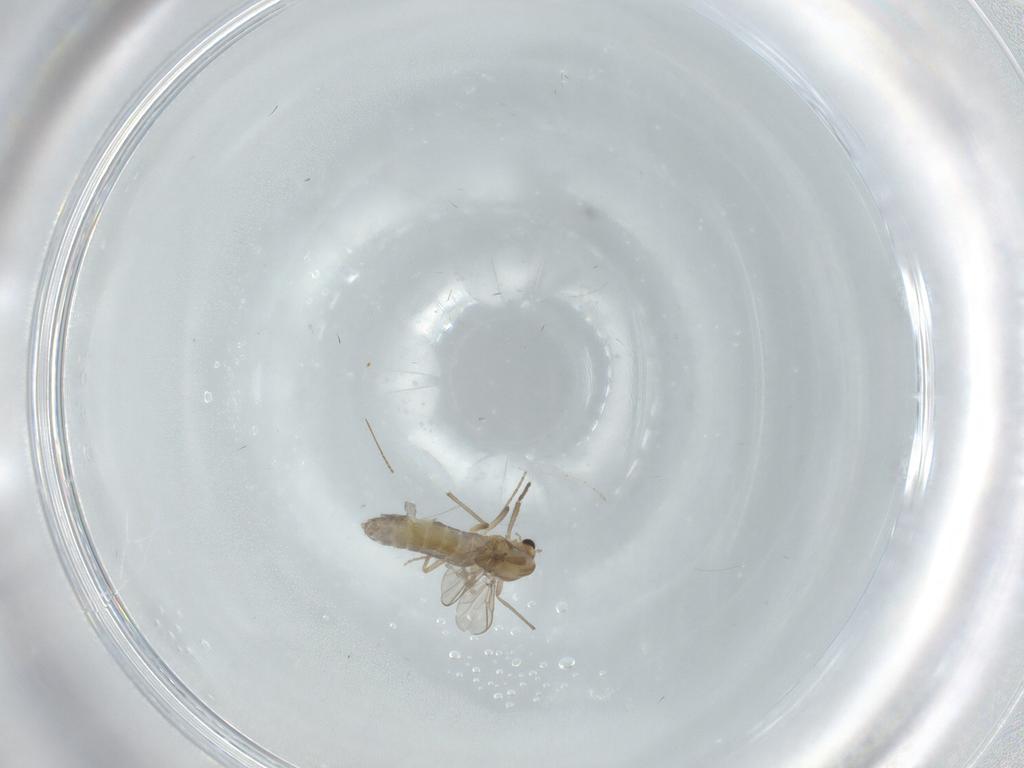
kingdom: Animalia
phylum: Arthropoda
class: Insecta
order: Diptera
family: Chironomidae
